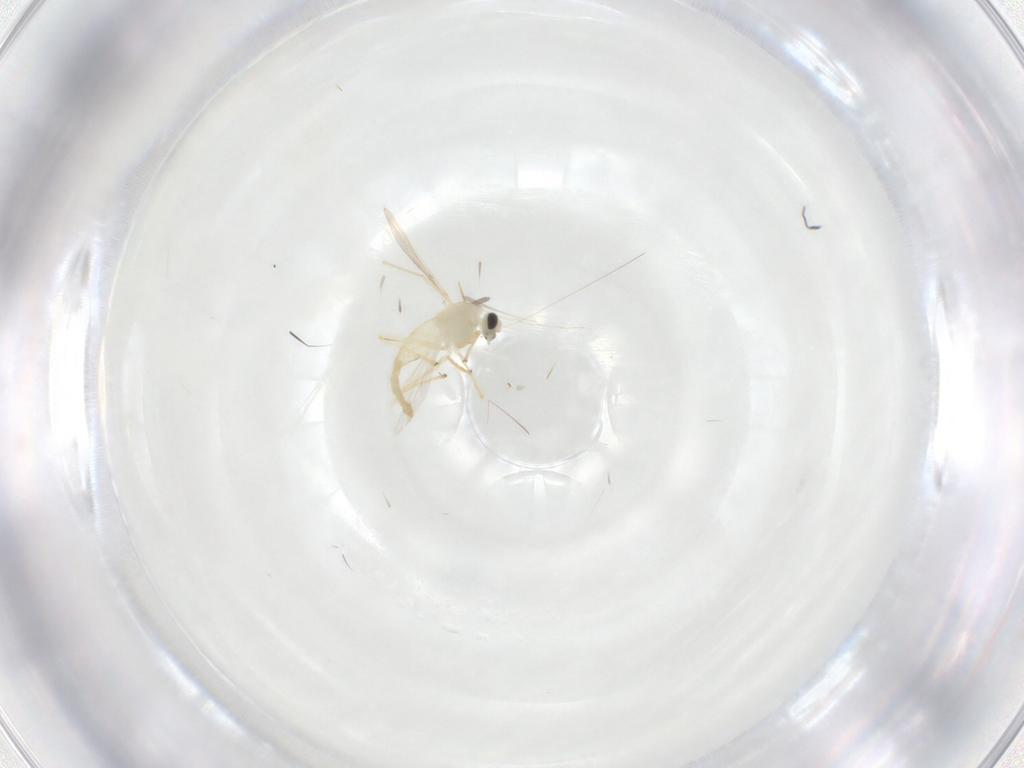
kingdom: Animalia
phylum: Arthropoda
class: Insecta
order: Diptera
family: Chironomidae
